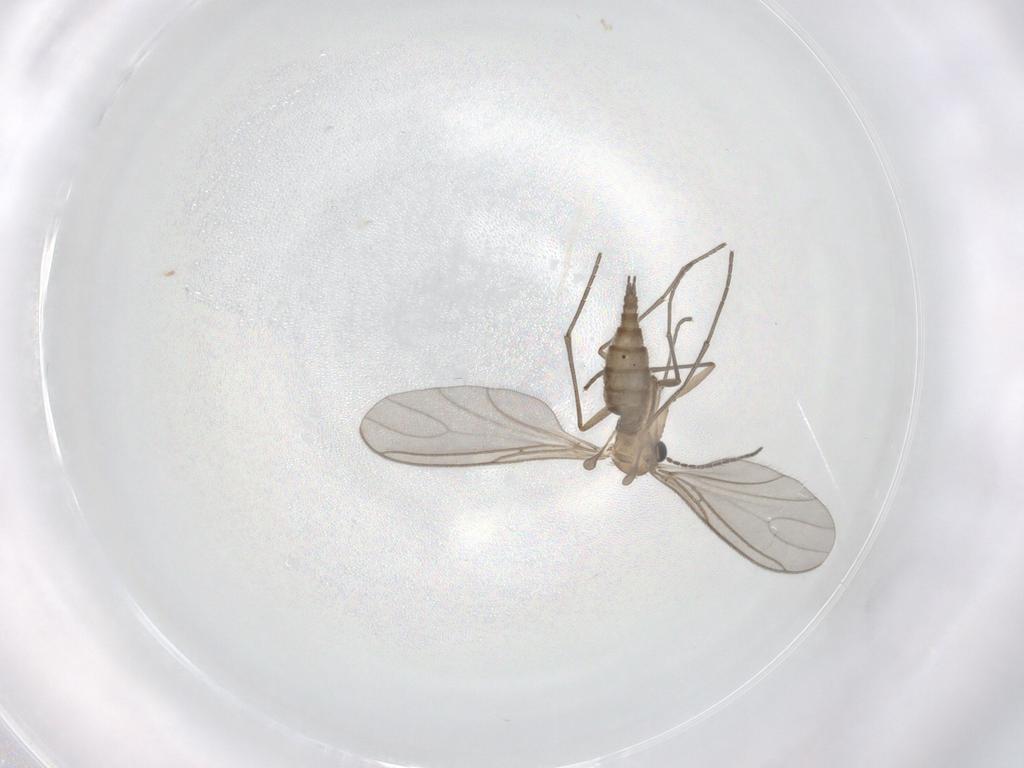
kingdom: Animalia
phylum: Arthropoda
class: Insecta
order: Diptera
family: Sciaridae
